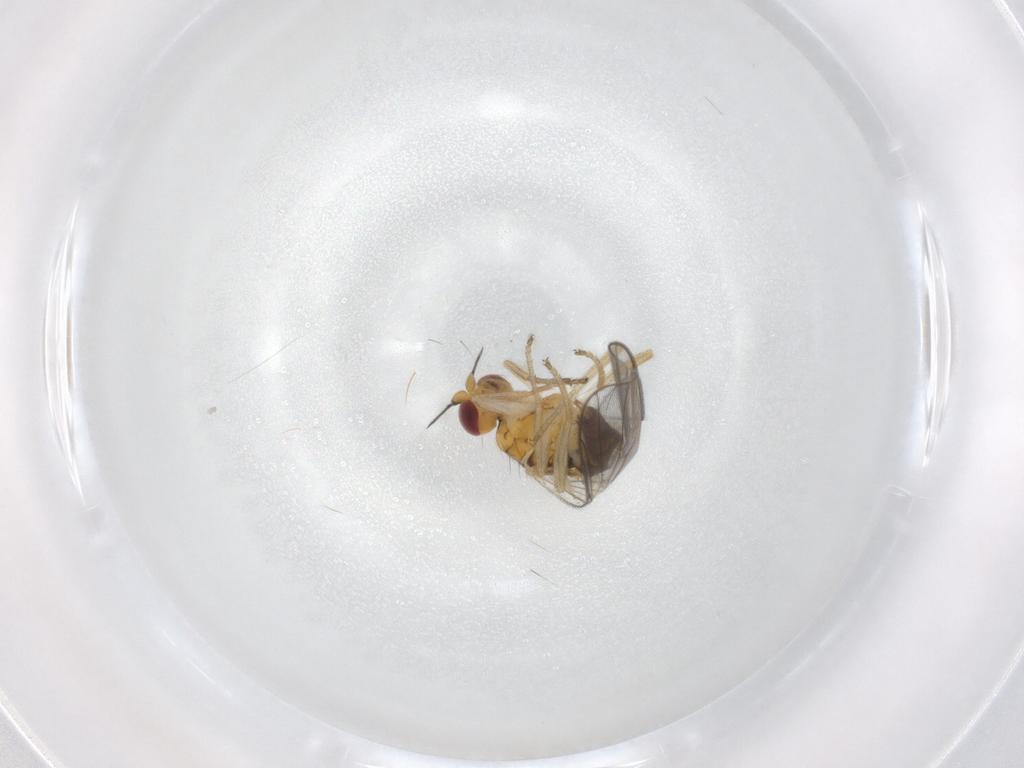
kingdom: Animalia
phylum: Arthropoda
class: Insecta
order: Diptera
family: Chloropidae
